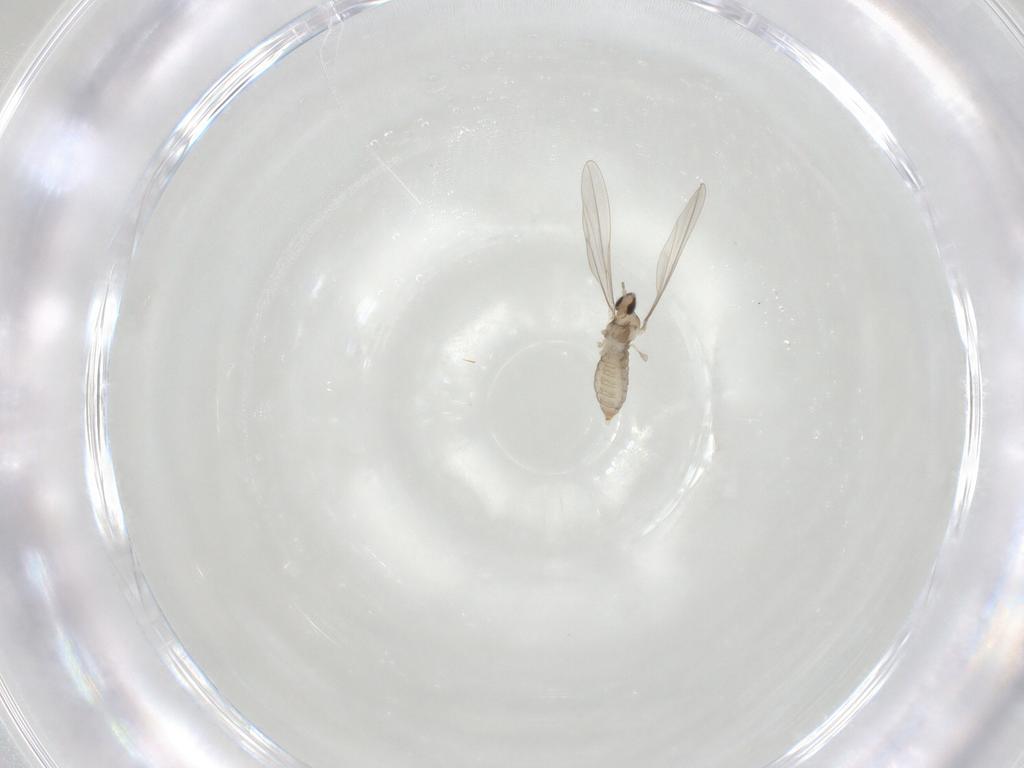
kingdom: Animalia
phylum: Arthropoda
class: Insecta
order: Diptera
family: Cecidomyiidae
